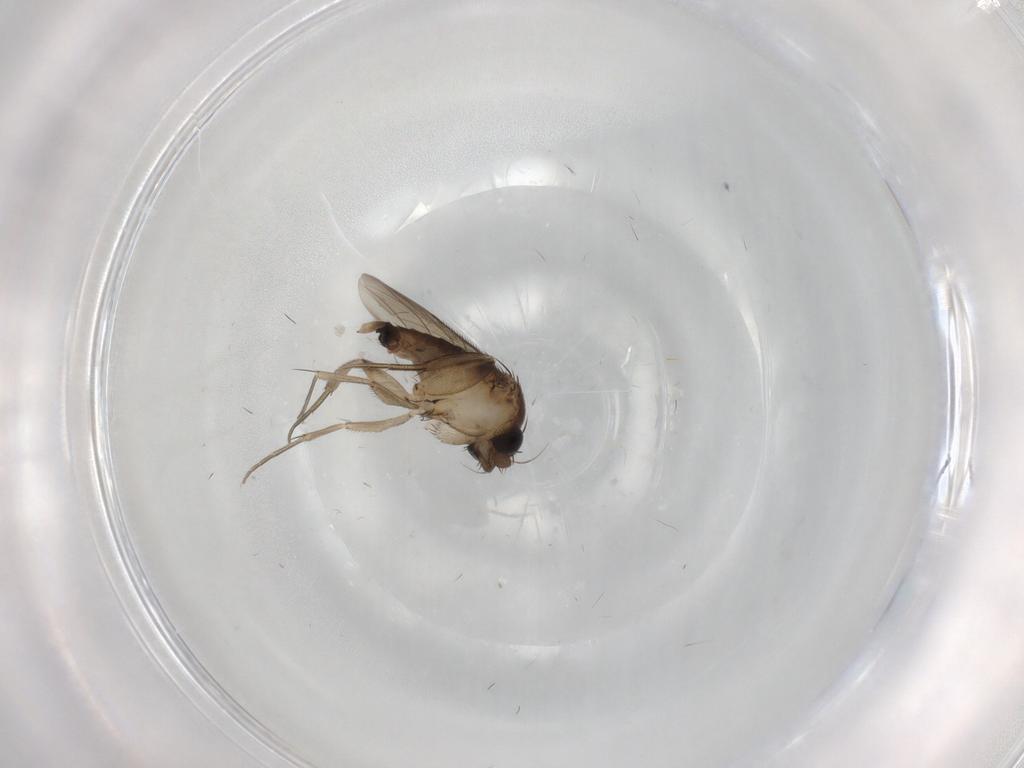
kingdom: Animalia
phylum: Arthropoda
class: Insecta
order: Diptera
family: Phoridae
